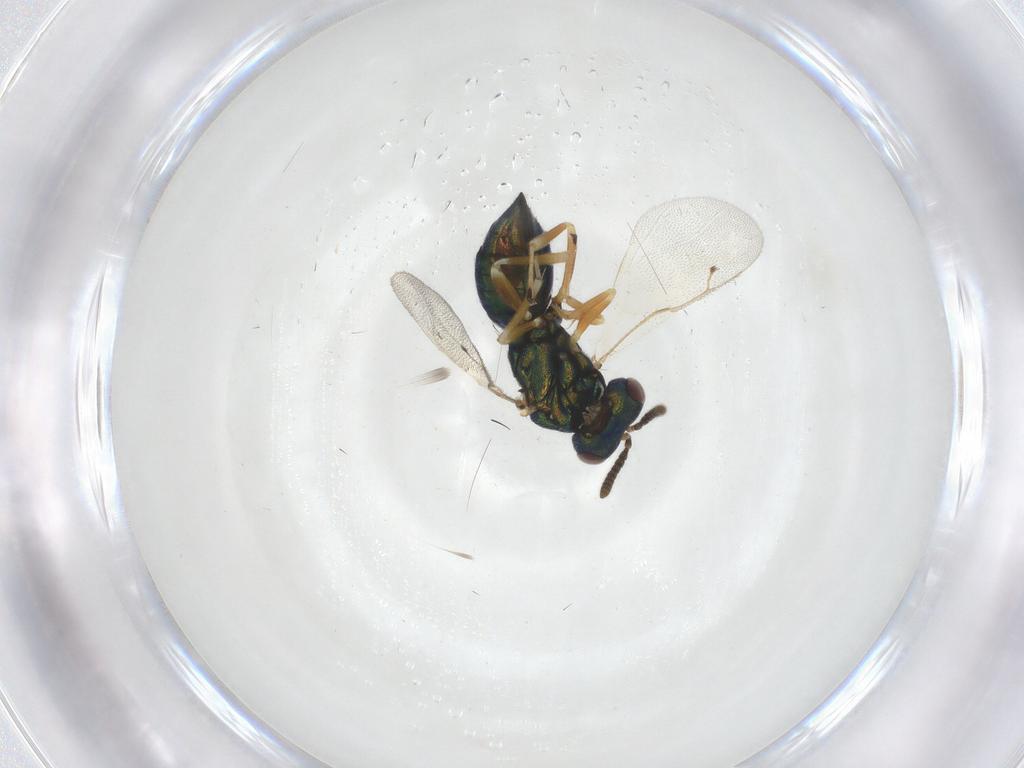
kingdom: Animalia
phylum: Arthropoda
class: Insecta
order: Hymenoptera
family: Pteromalidae
